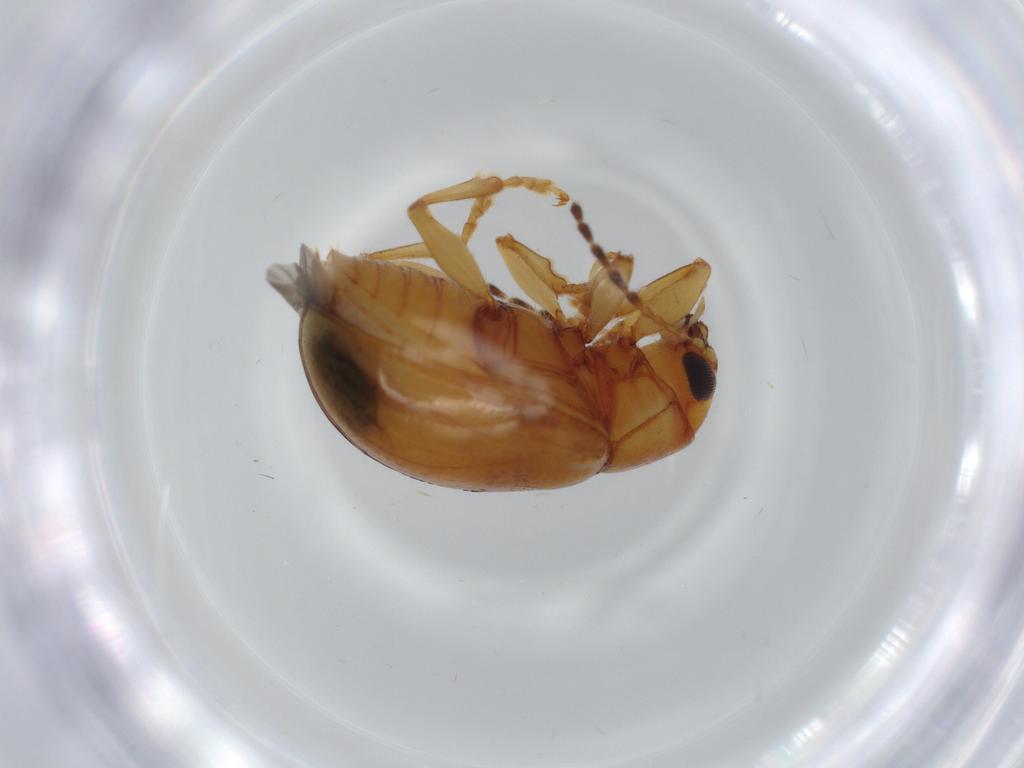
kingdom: Animalia
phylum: Arthropoda
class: Insecta
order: Coleoptera
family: Chrysomelidae
